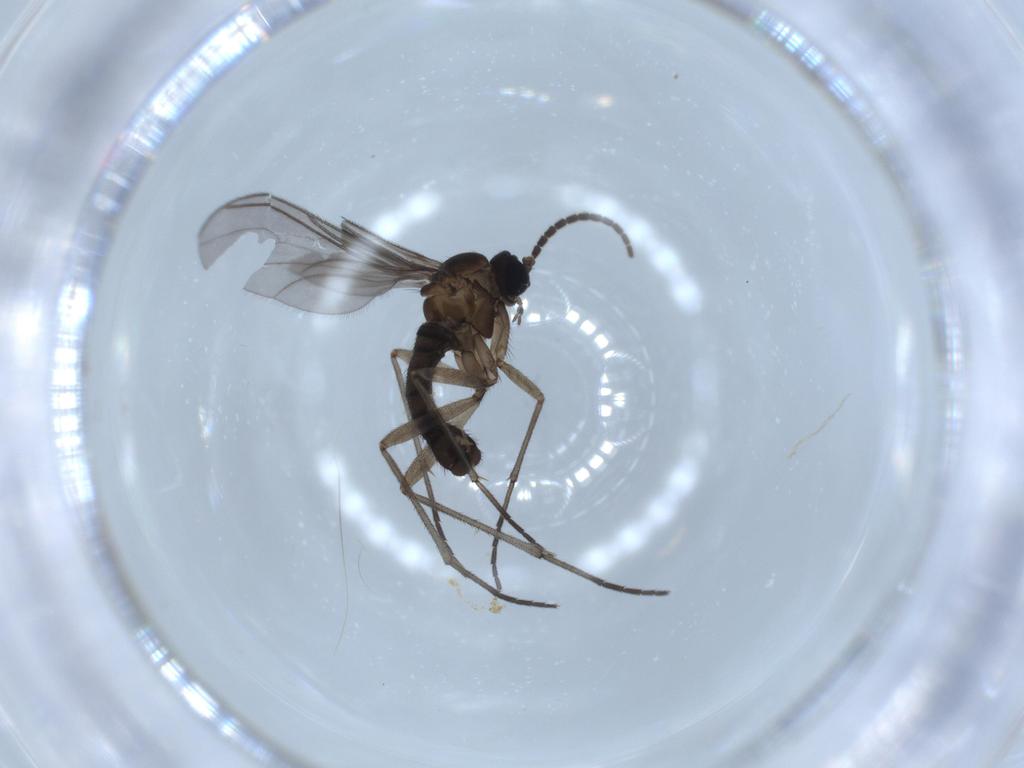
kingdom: Animalia
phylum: Arthropoda
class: Insecta
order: Diptera
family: Sciaridae
